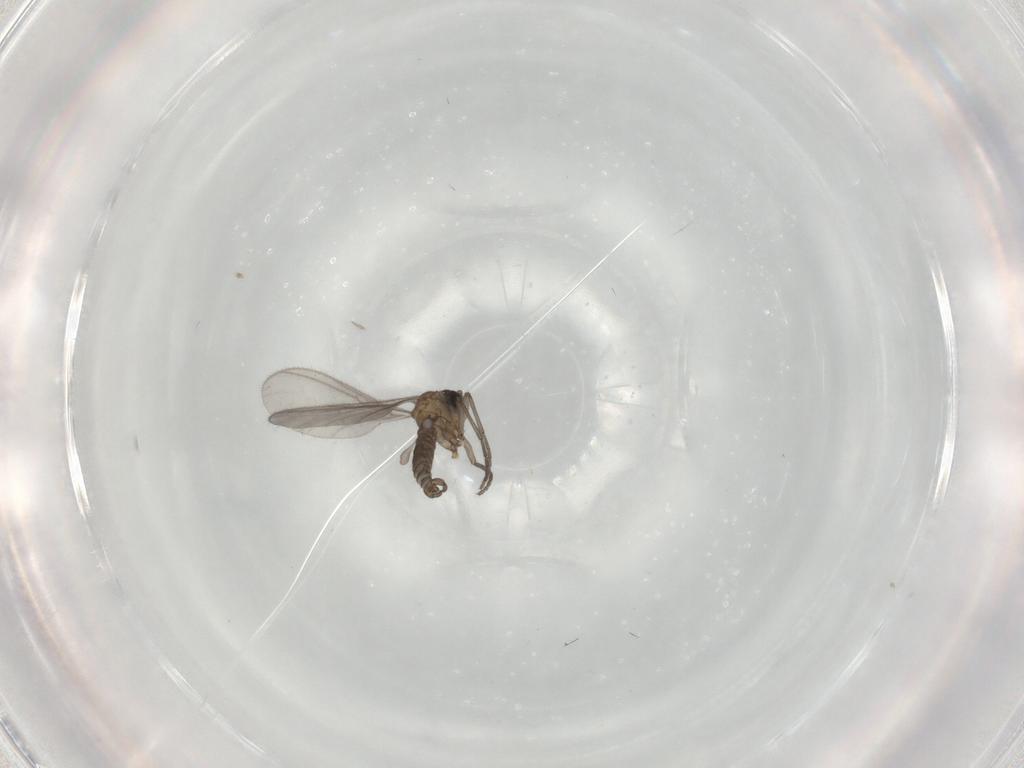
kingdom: Animalia
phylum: Arthropoda
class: Insecta
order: Diptera
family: Sciaridae
